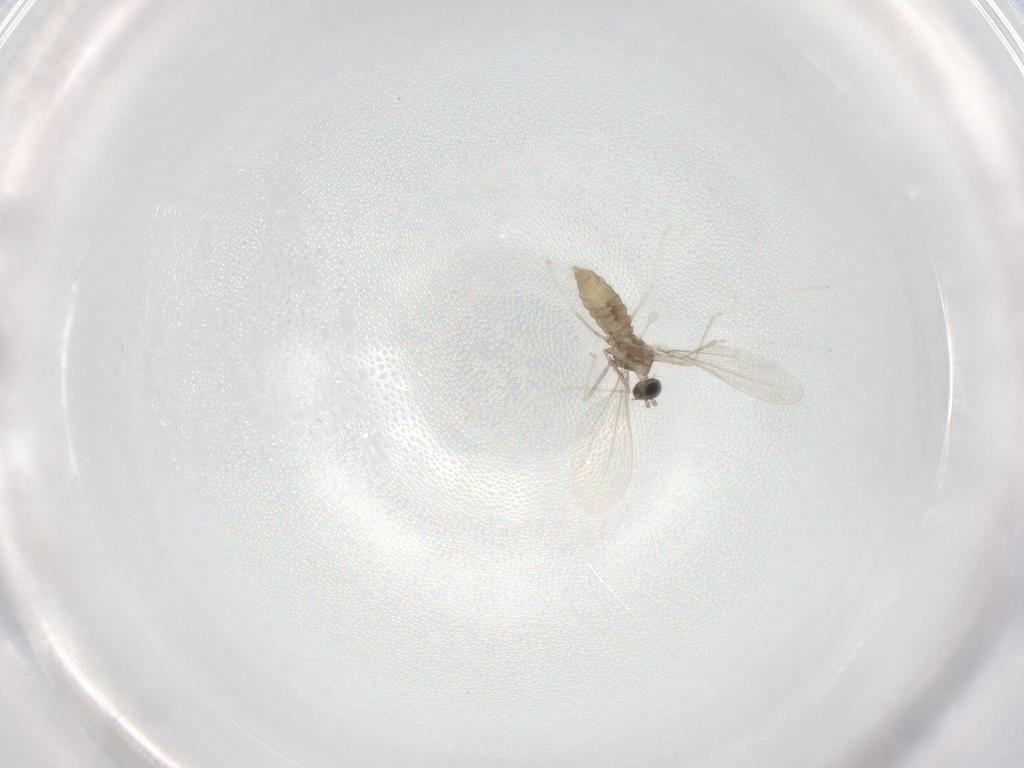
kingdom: Animalia
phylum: Arthropoda
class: Insecta
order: Diptera
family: Cecidomyiidae
